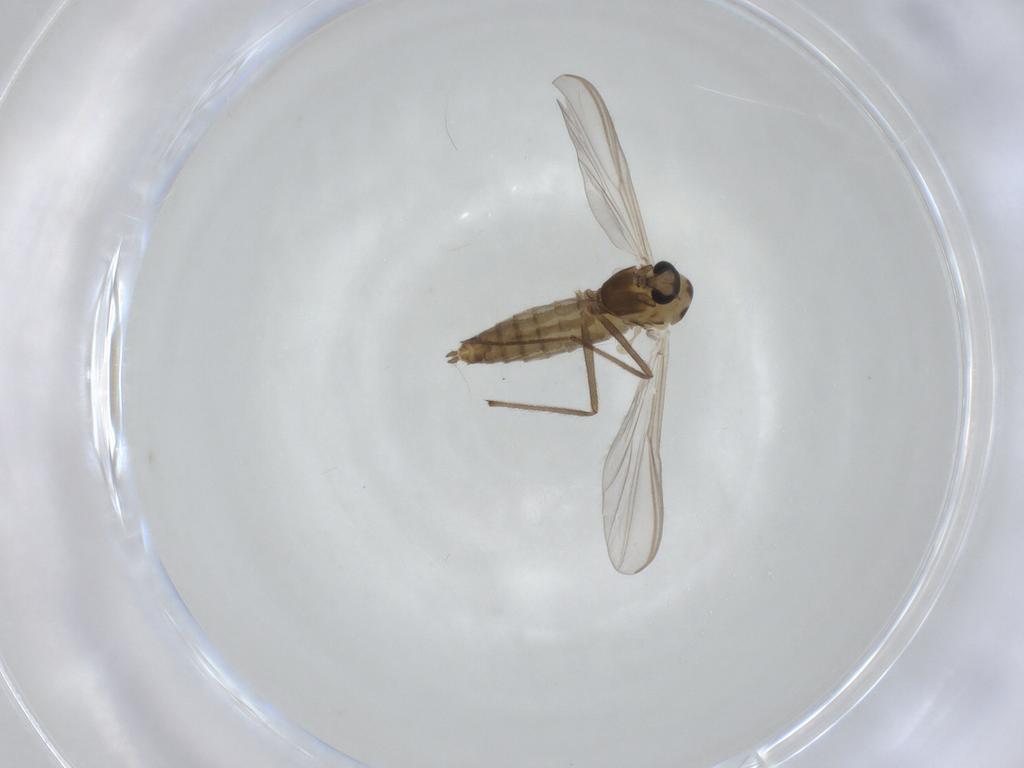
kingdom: Animalia
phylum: Arthropoda
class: Insecta
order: Diptera
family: Chironomidae
